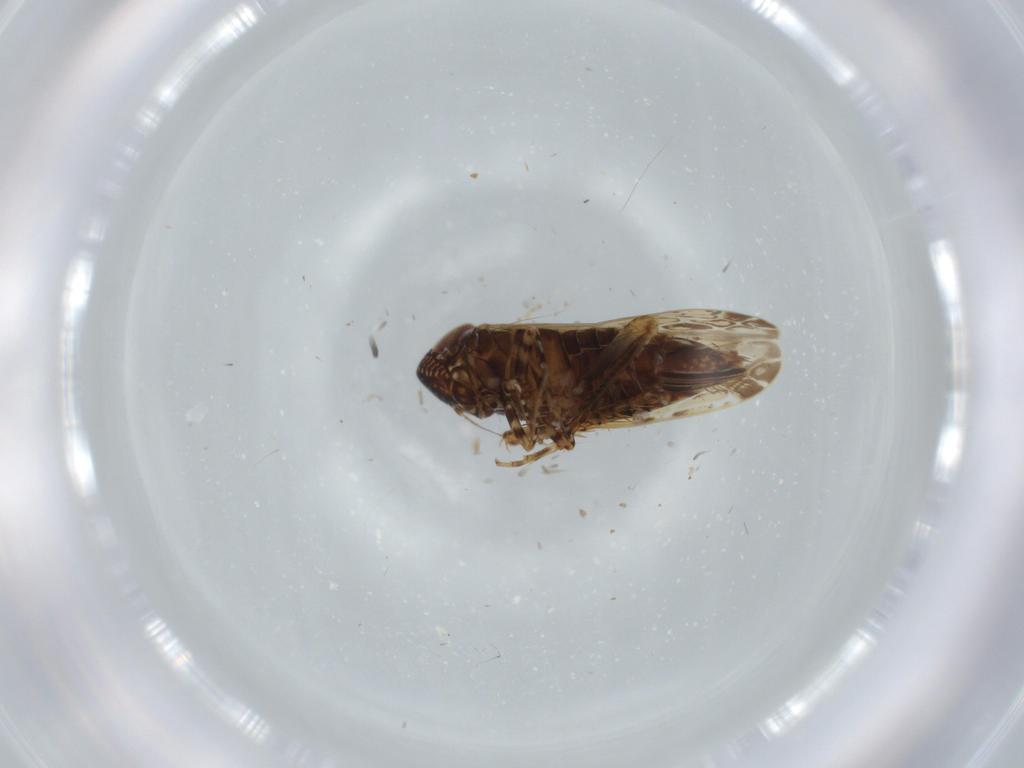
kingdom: Animalia
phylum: Arthropoda
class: Insecta
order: Hemiptera
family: Cicadellidae
